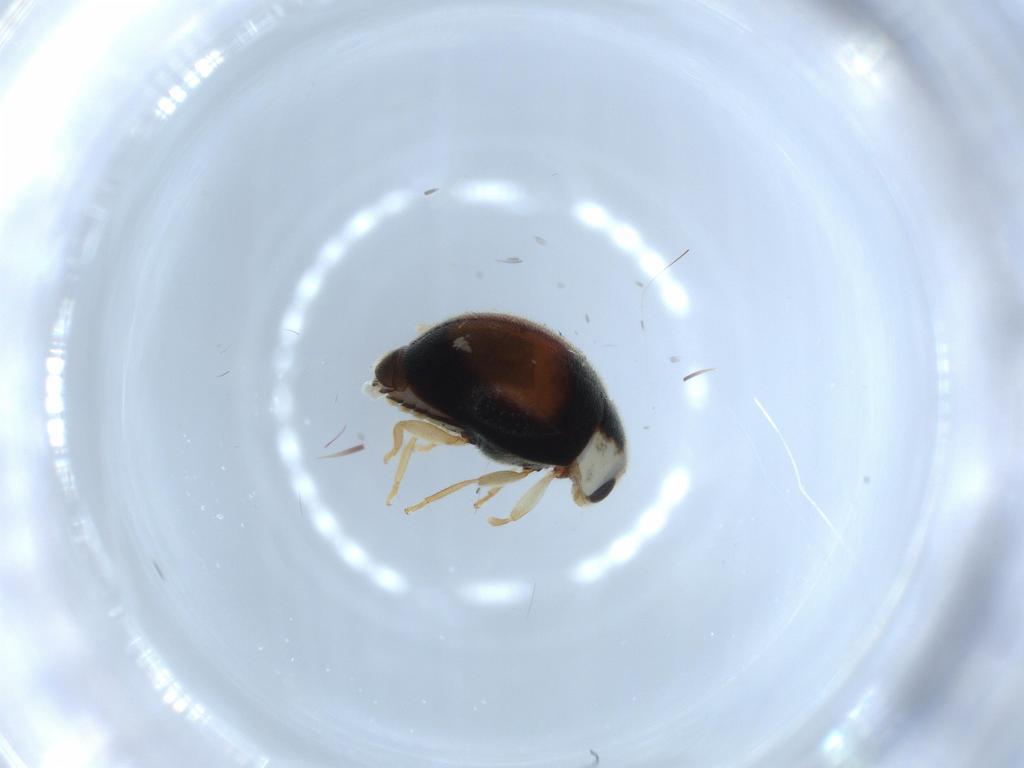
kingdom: Animalia
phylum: Arthropoda
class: Insecta
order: Coleoptera
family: Coccinellidae
